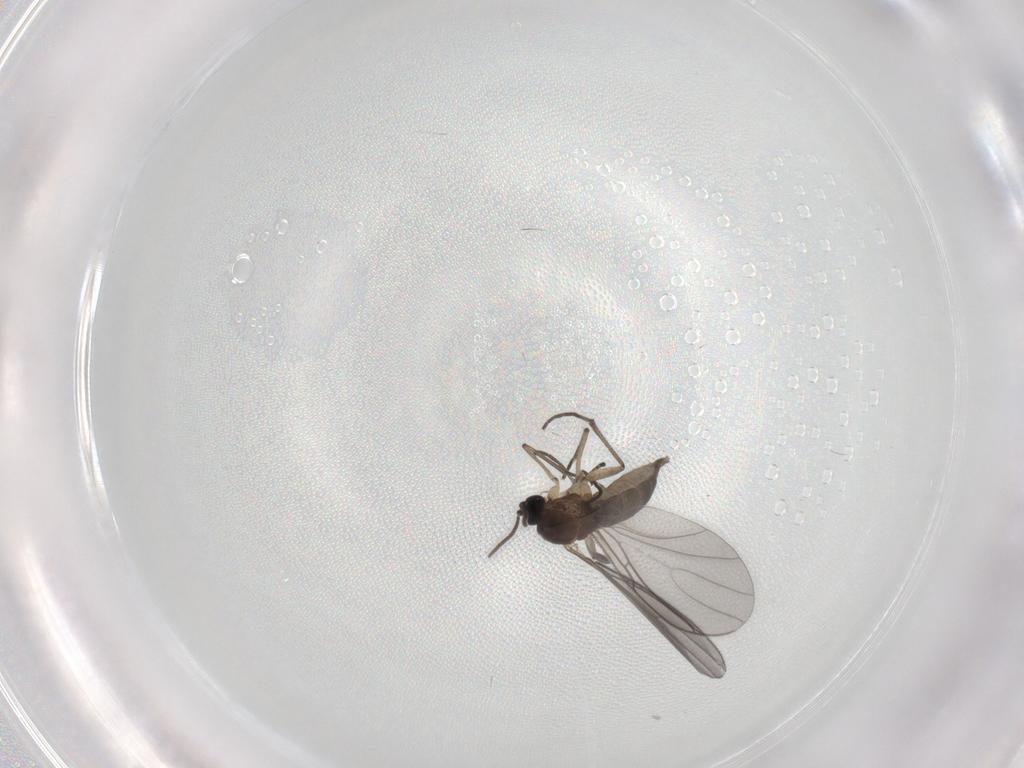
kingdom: Animalia
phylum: Arthropoda
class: Insecta
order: Diptera
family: Sciaridae
